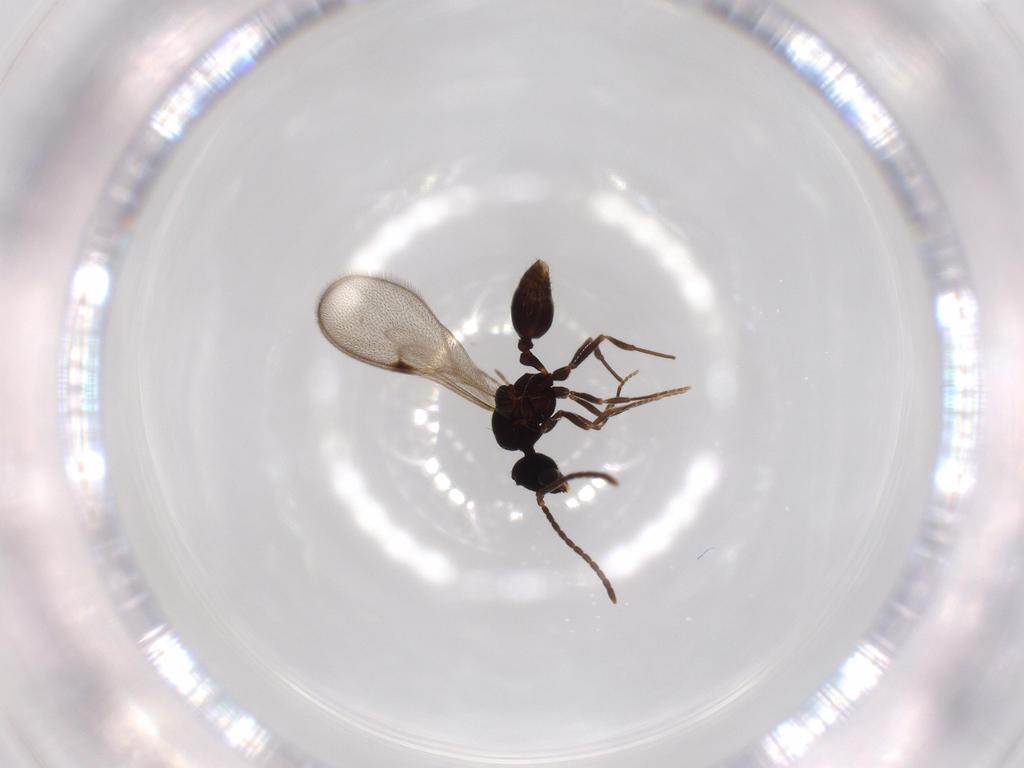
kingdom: Animalia
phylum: Arthropoda
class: Insecta
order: Hymenoptera
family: Formicidae
